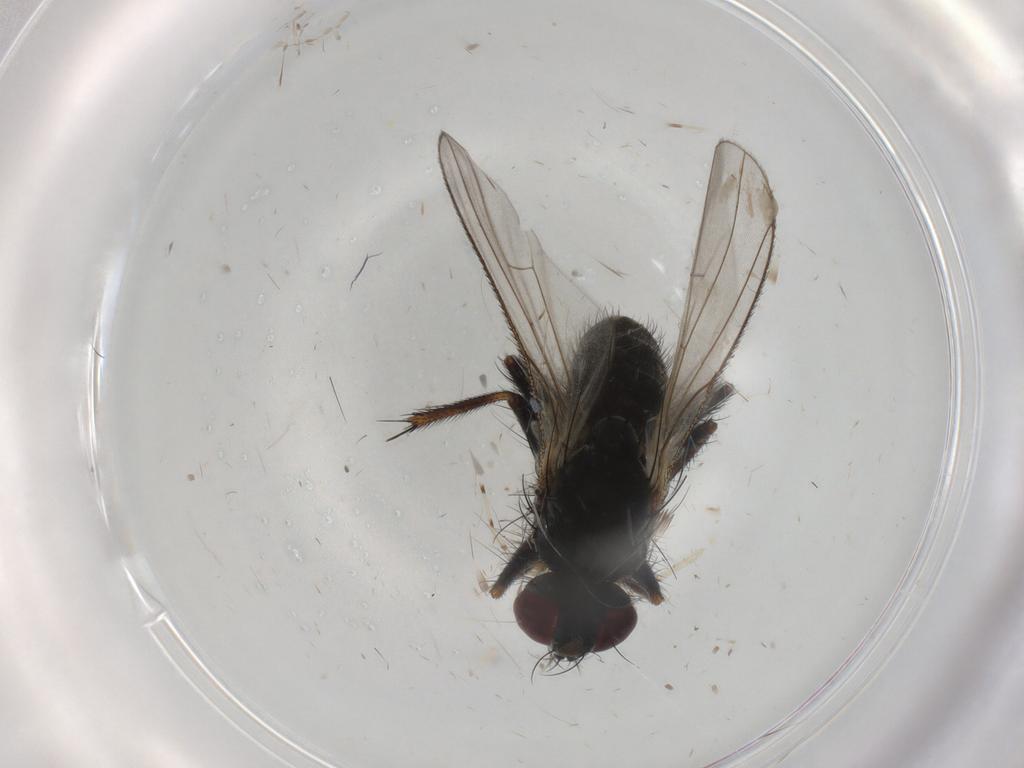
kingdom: Animalia
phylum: Arthropoda
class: Insecta
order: Diptera
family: Muscidae
